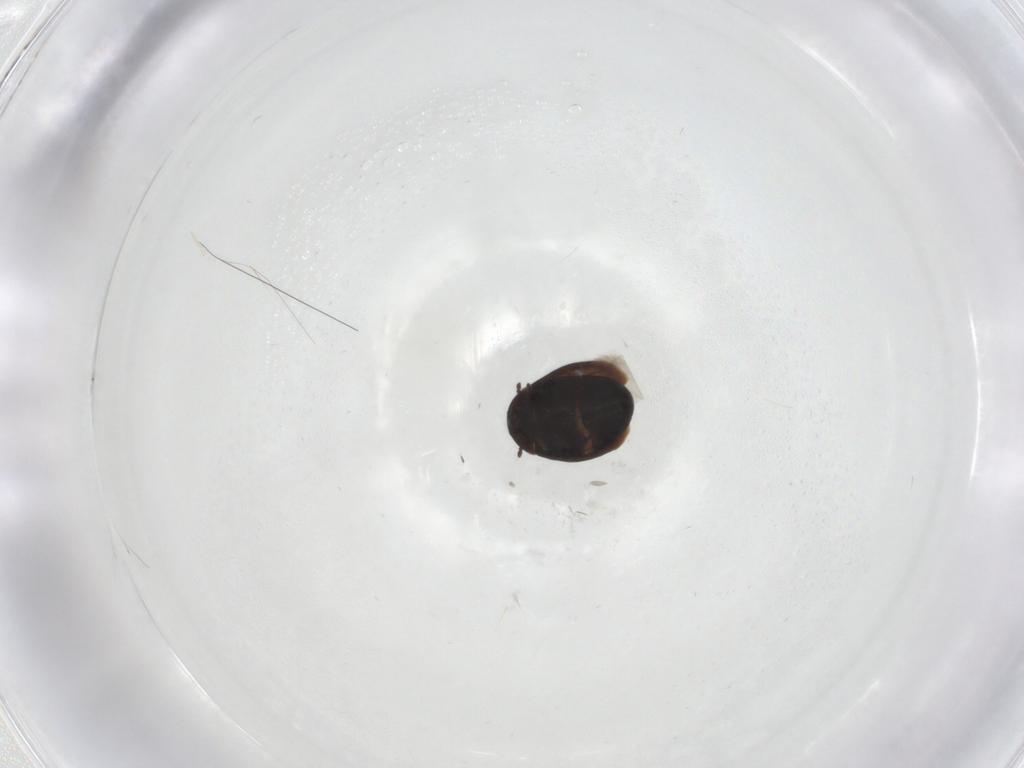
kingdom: Animalia
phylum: Arthropoda
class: Insecta
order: Coleoptera
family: Corylophidae
